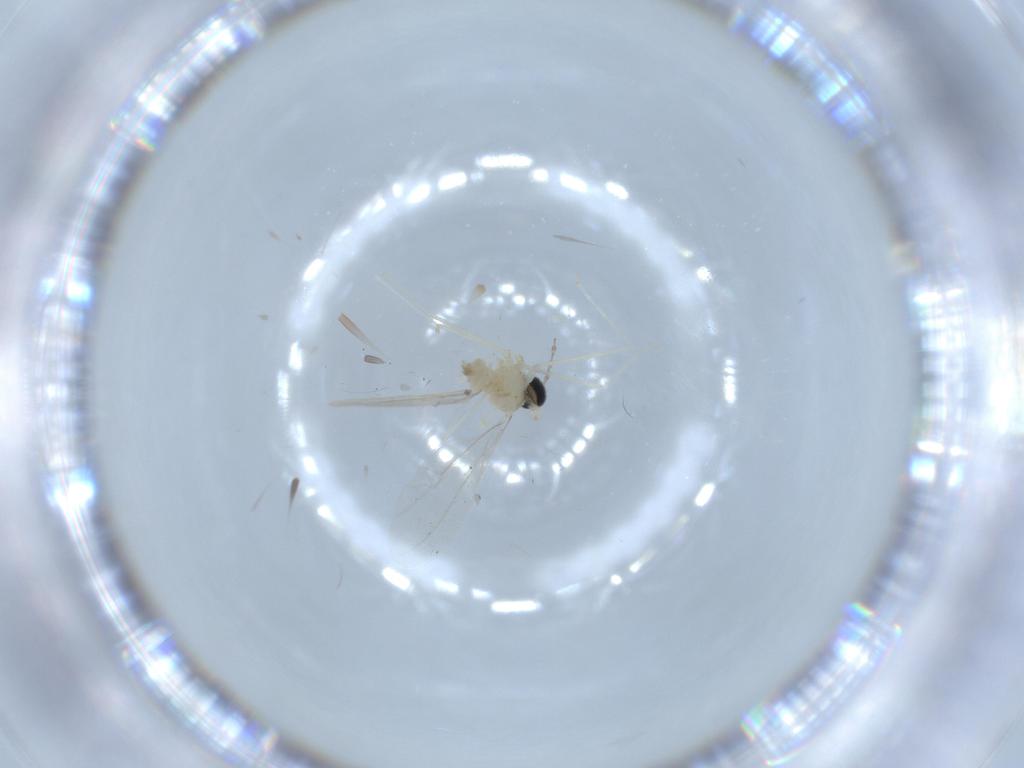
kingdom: Animalia
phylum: Arthropoda
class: Insecta
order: Diptera
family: Cecidomyiidae
